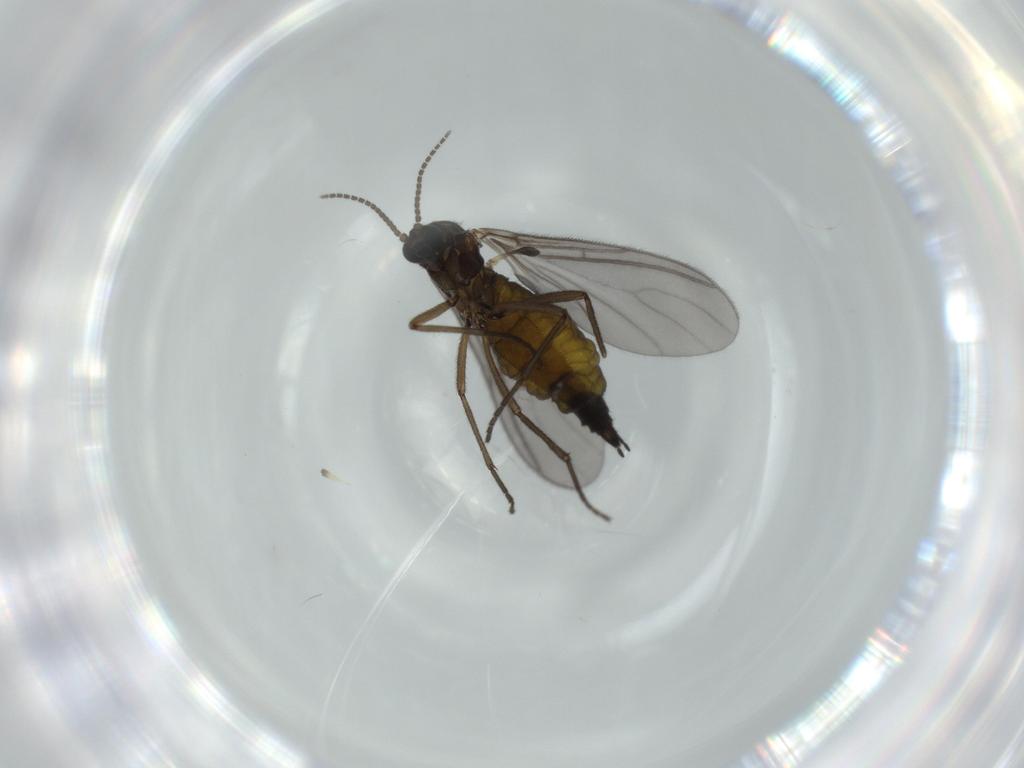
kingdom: Animalia
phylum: Arthropoda
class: Insecta
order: Diptera
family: Sciaridae
